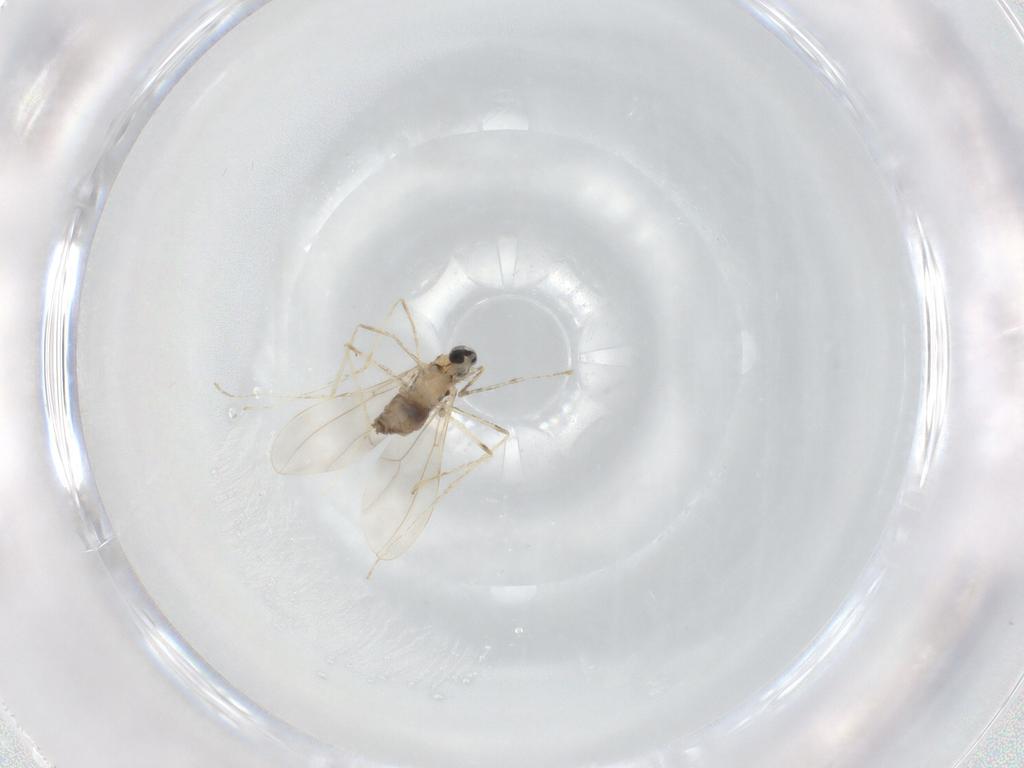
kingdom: Animalia
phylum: Arthropoda
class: Insecta
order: Diptera
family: Cecidomyiidae
